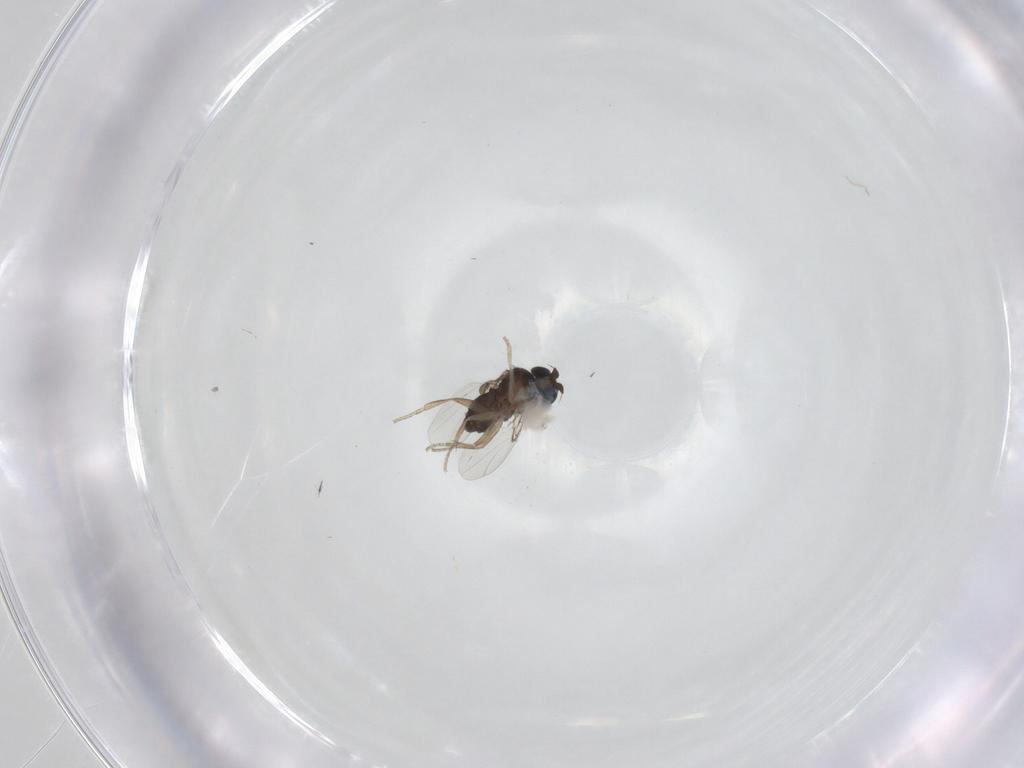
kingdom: Animalia
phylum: Arthropoda
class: Insecta
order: Diptera
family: Phoridae
